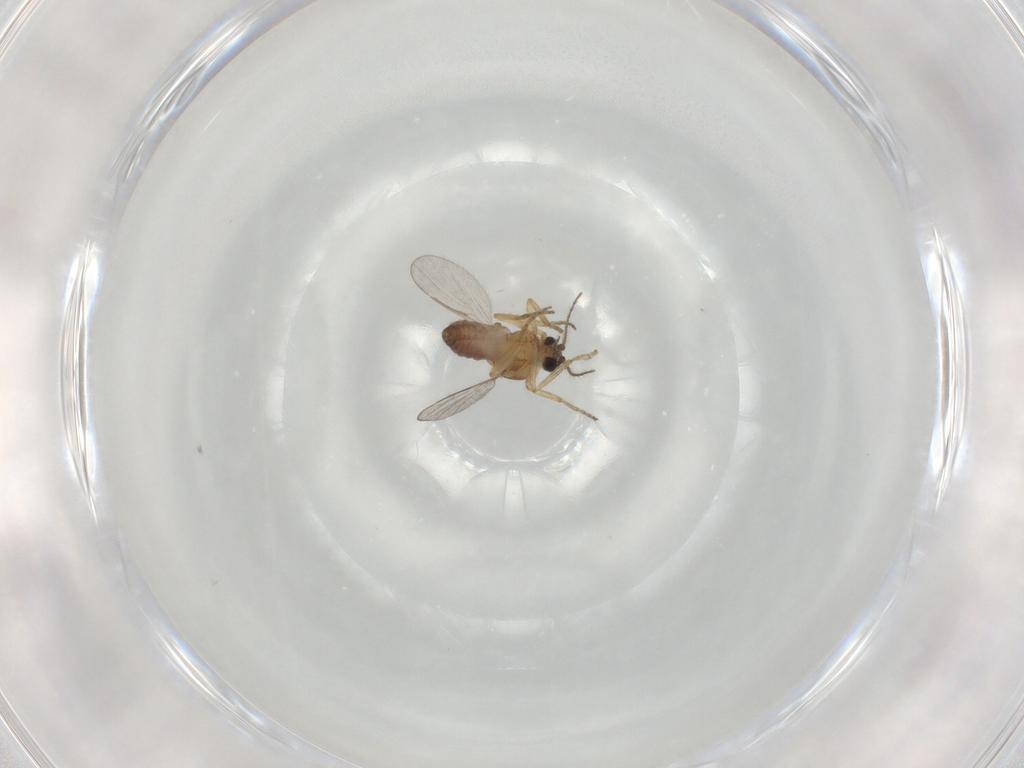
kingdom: Animalia
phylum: Arthropoda
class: Insecta
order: Diptera
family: Ceratopogonidae
